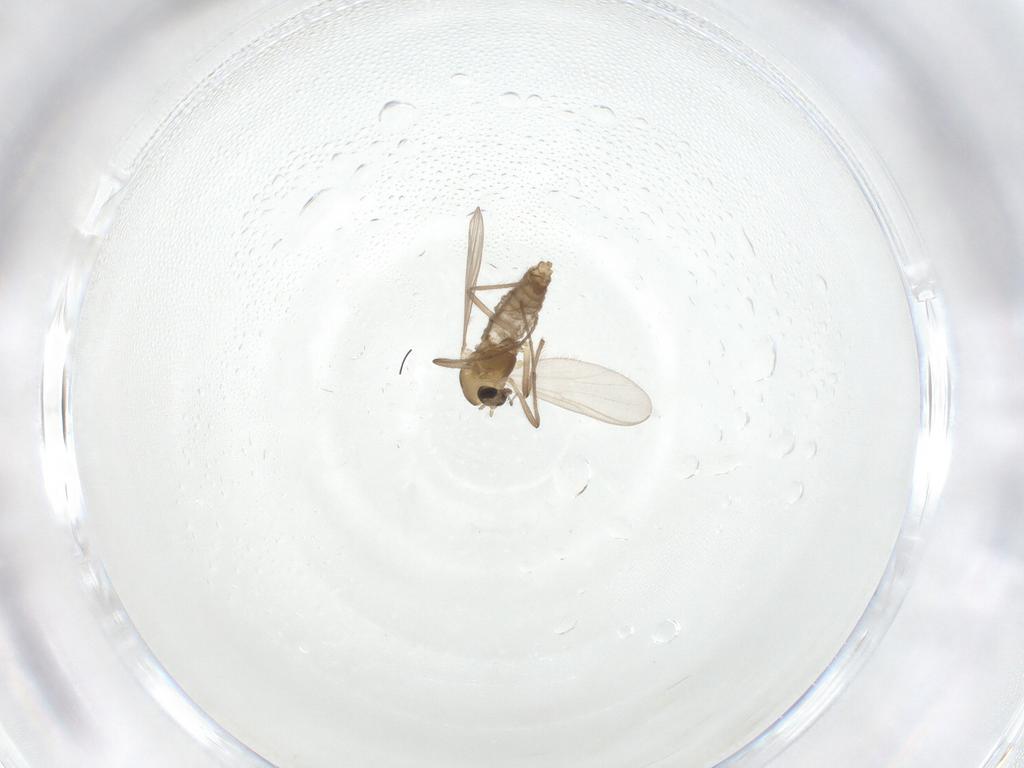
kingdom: Animalia
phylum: Arthropoda
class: Insecta
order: Diptera
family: Chironomidae
